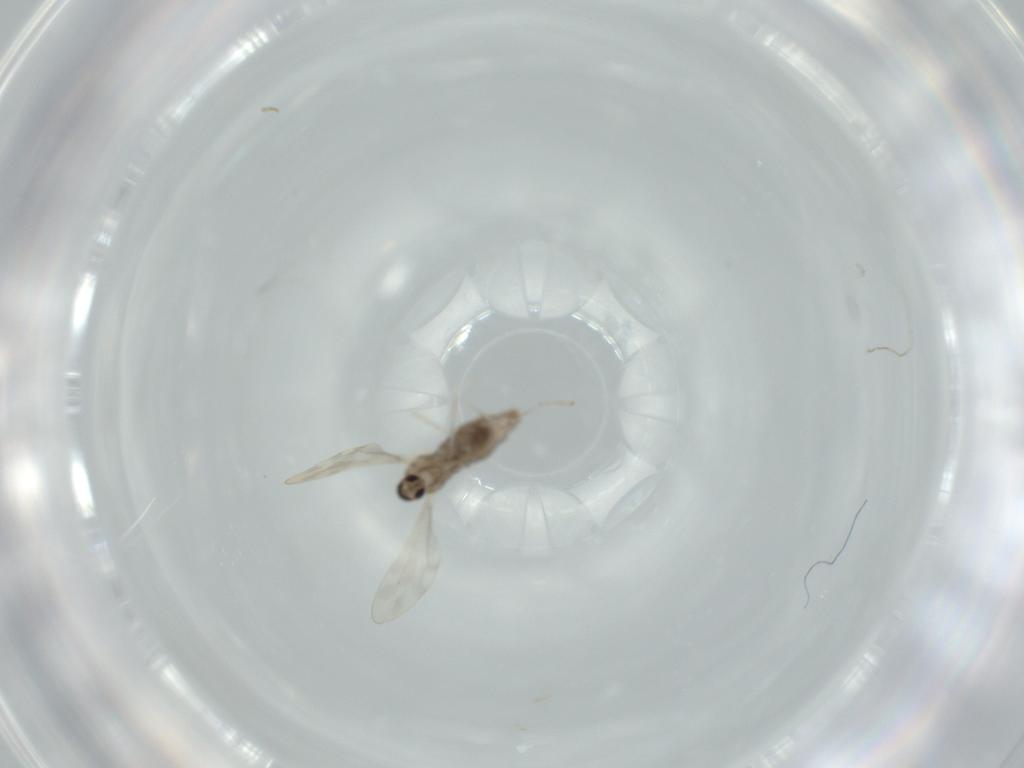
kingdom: Animalia
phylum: Arthropoda
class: Insecta
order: Diptera
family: Cecidomyiidae
